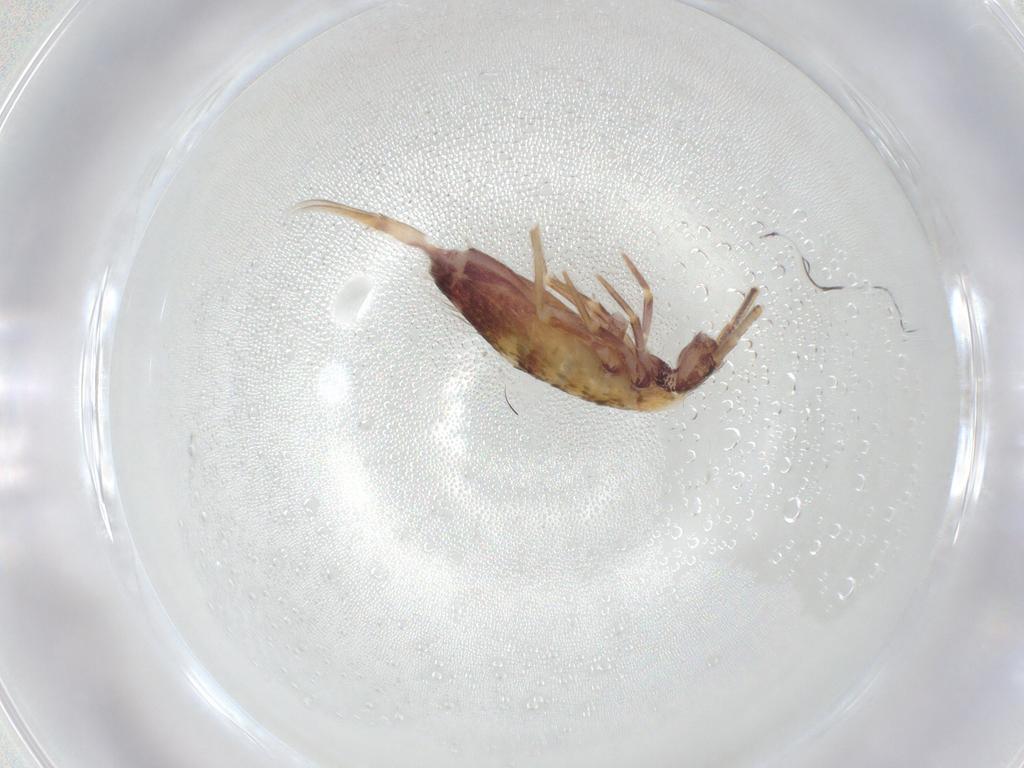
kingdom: Animalia
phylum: Arthropoda
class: Collembola
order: Entomobryomorpha
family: Entomobryidae
